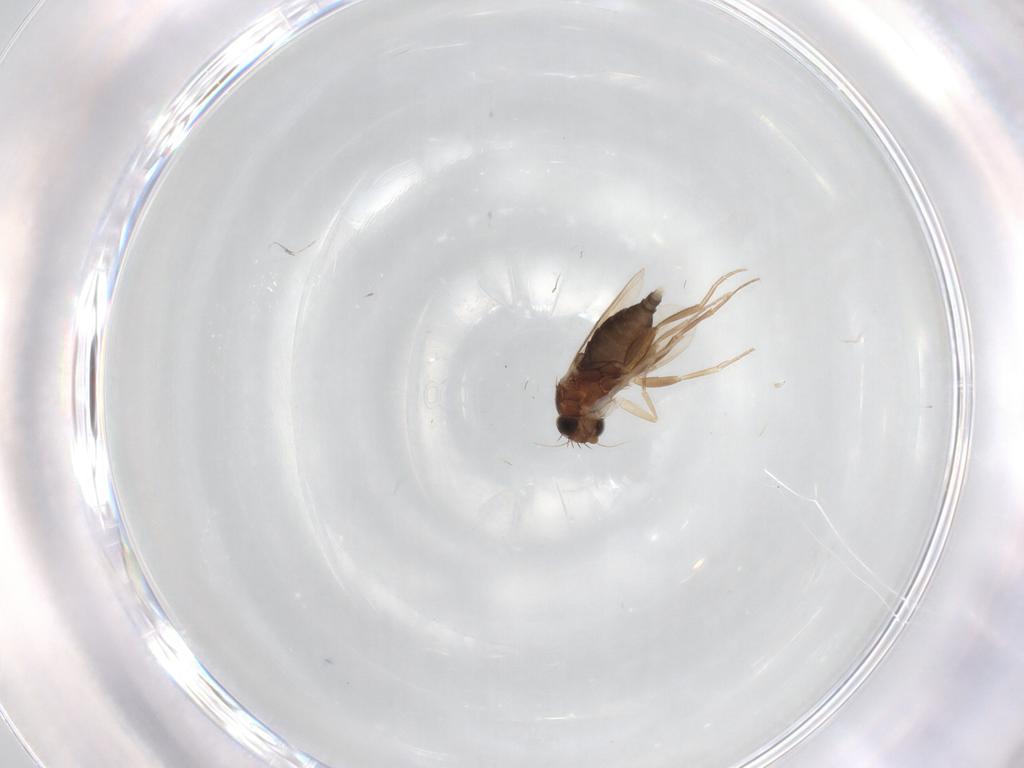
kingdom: Animalia
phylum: Arthropoda
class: Insecta
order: Diptera
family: Phoridae
